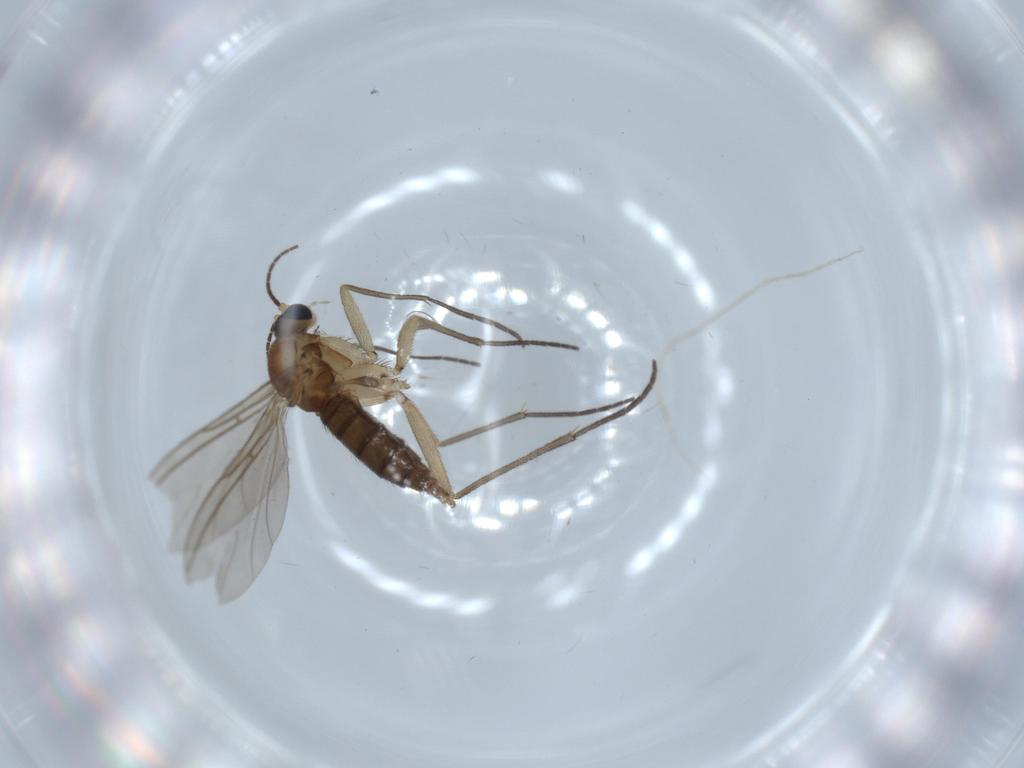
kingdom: Animalia
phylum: Arthropoda
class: Insecta
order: Diptera
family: Sciaridae
